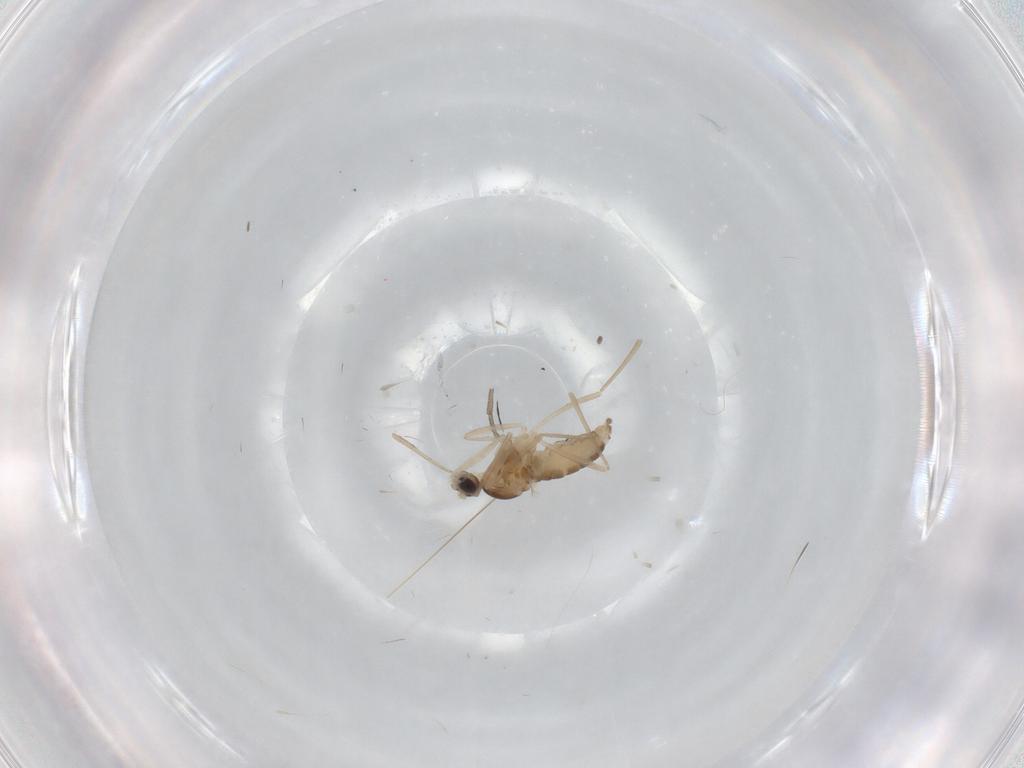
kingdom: Animalia
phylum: Arthropoda
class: Insecta
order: Diptera
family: Cecidomyiidae
